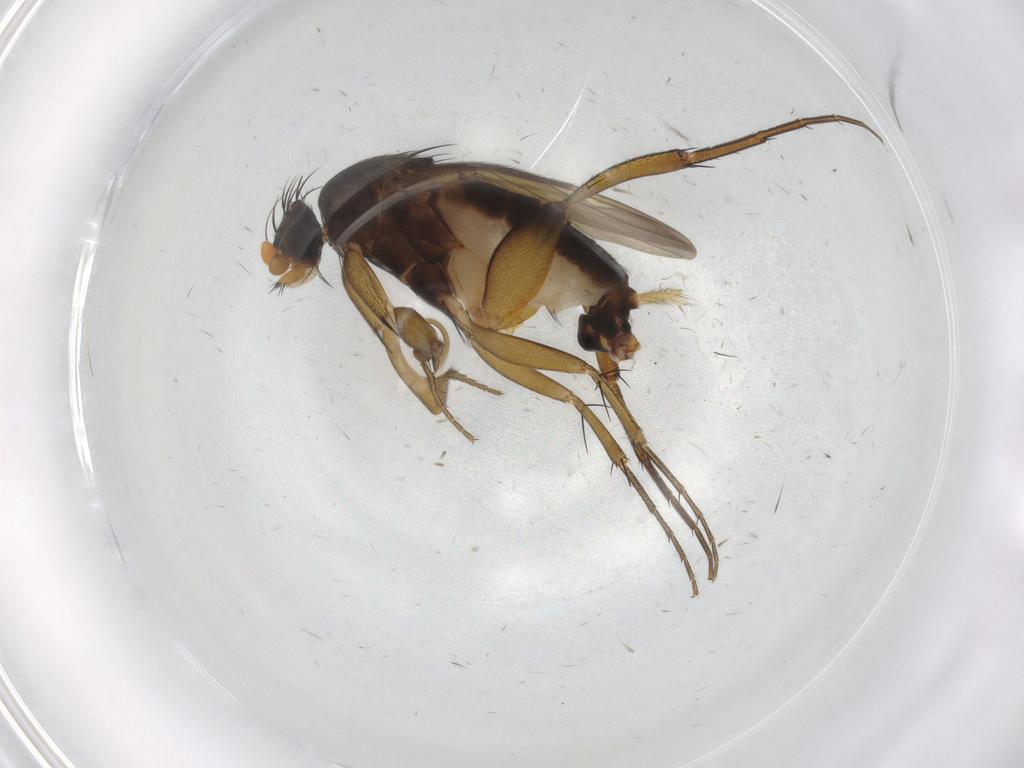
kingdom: Animalia
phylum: Arthropoda
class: Insecta
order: Diptera
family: Phoridae
